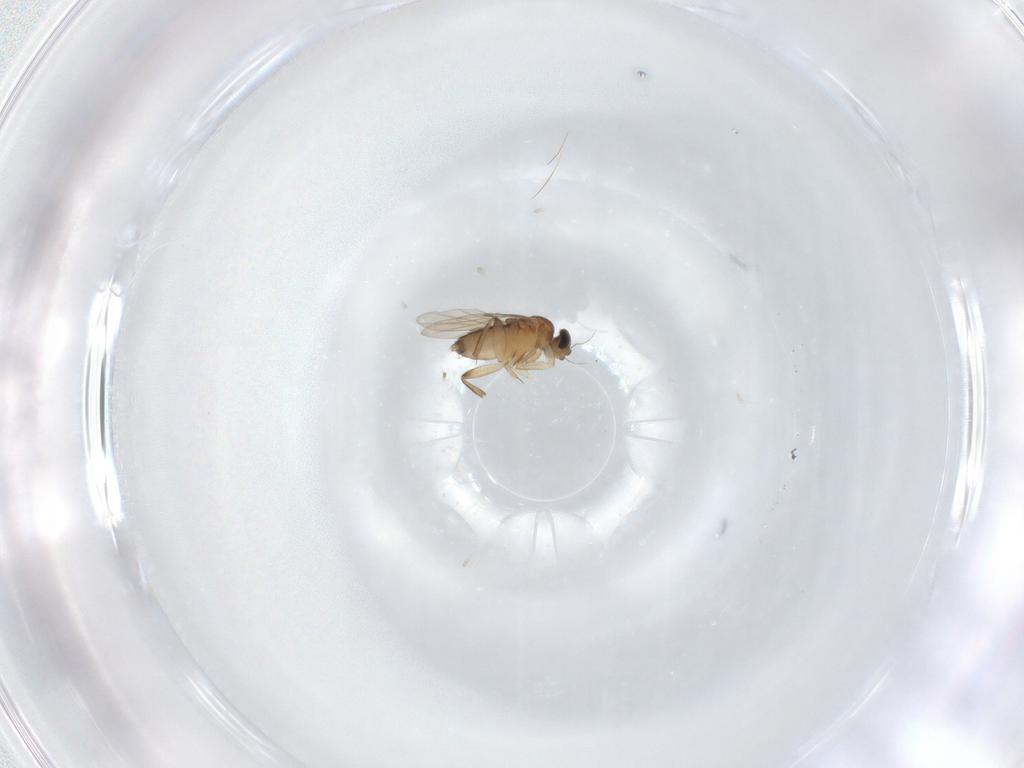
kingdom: Animalia
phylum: Arthropoda
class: Insecta
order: Diptera
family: Phoridae
